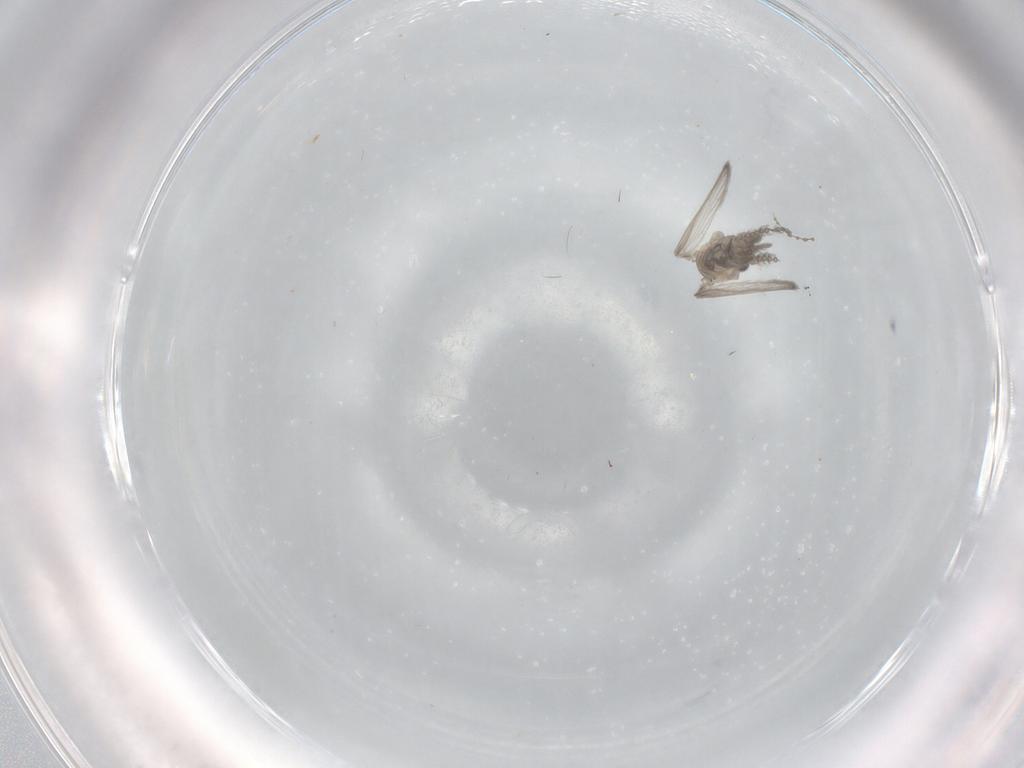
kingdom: Animalia
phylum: Arthropoda
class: Insecta
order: Diptera
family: Psychodidae
